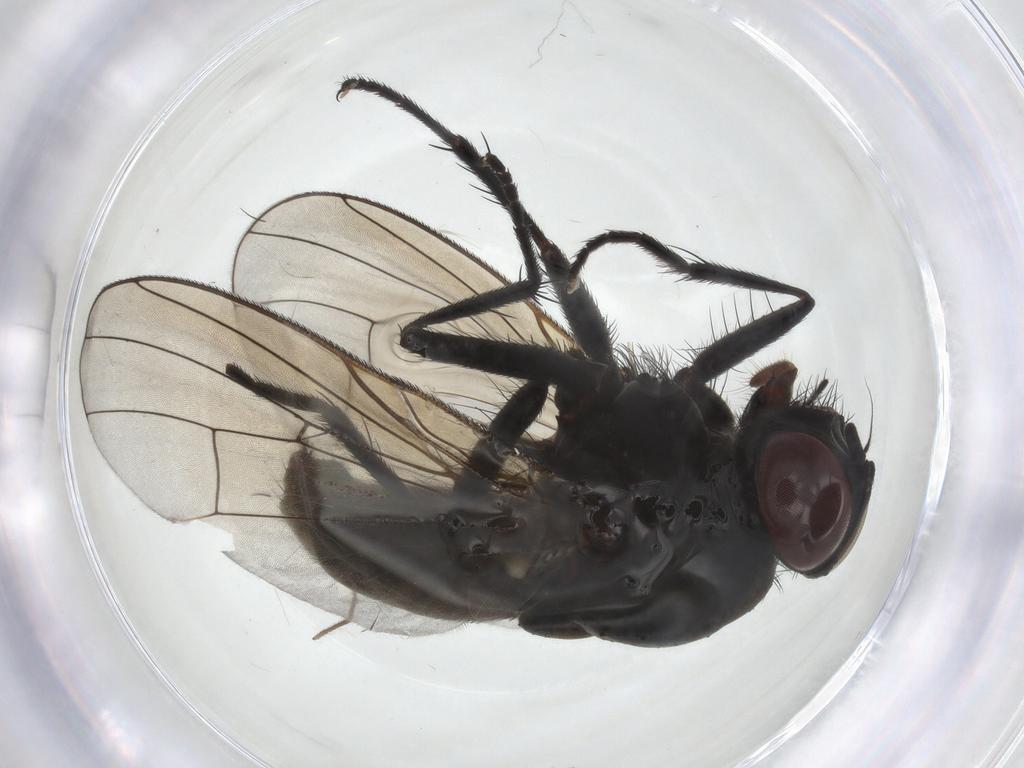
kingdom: Animalia
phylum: Arthropoda
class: Insecta
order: Diptera
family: Muscidae
